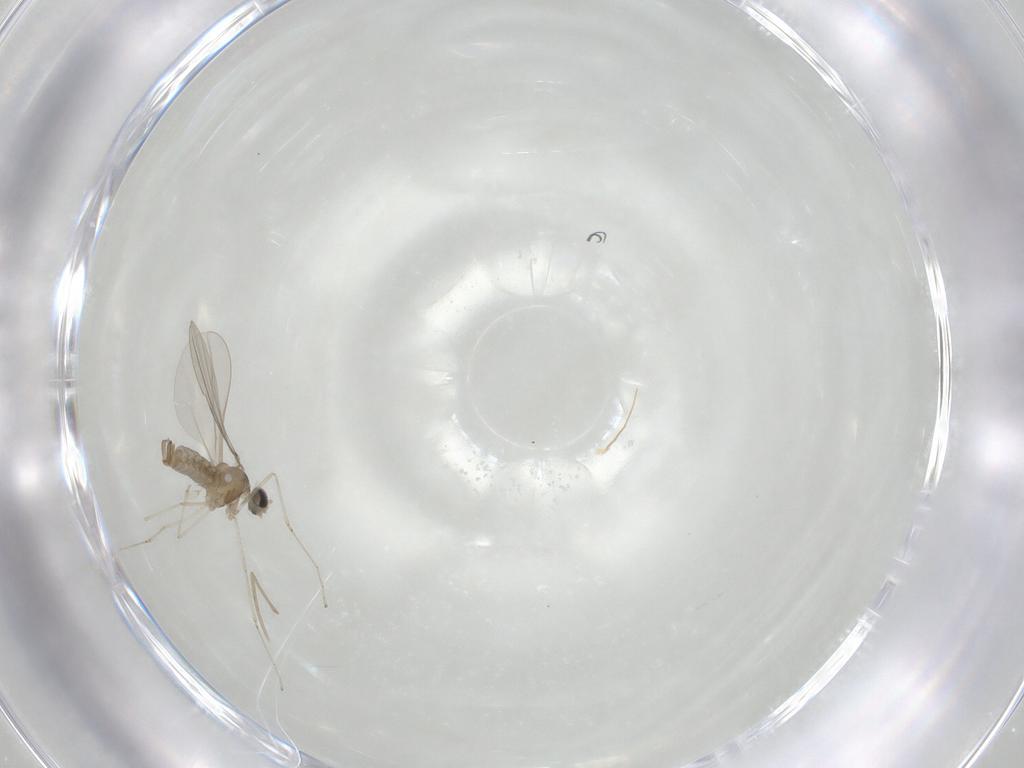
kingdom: Animalia
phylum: Arthropoda
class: Insecta
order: Diptera
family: Cecidomyiidae
